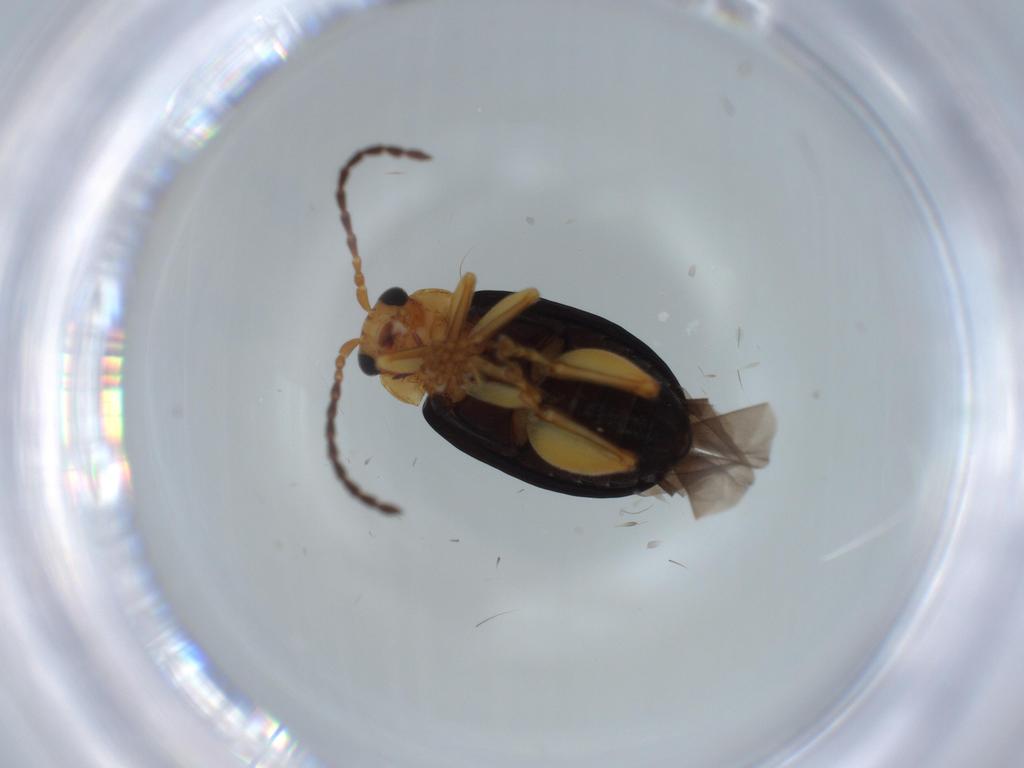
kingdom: Animalia
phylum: Arthropoda
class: Insecta
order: Coleoptera
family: Chrysomelidae
